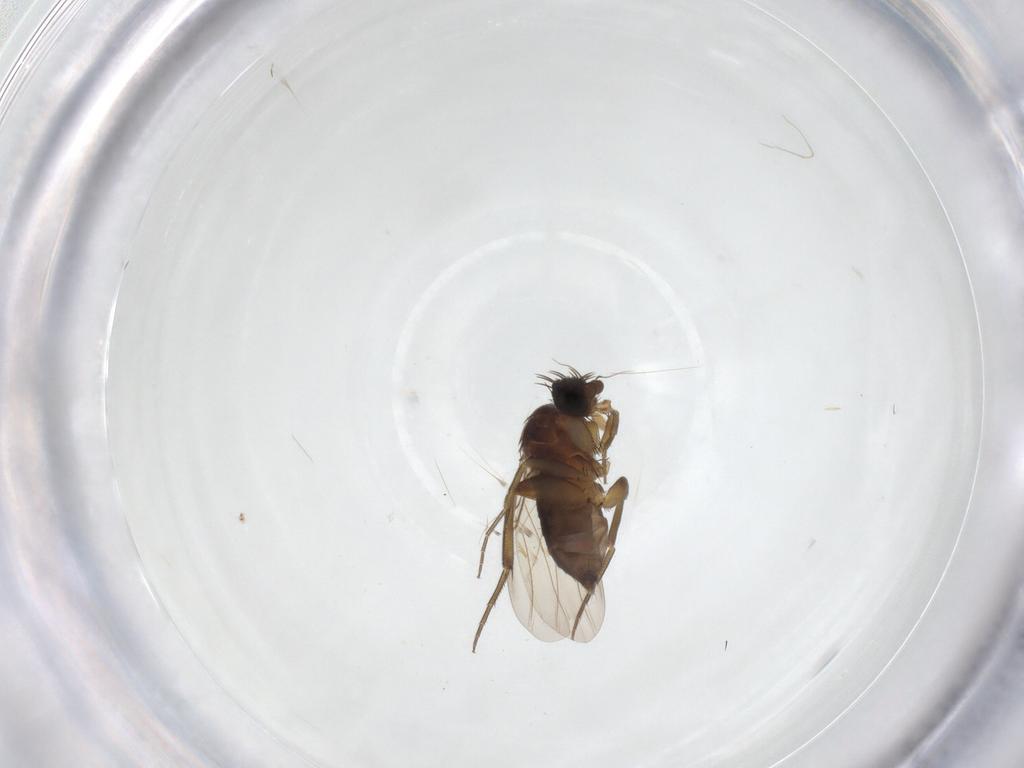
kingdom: Animalia
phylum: Arthropoda
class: Insecta
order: Diptera
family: Phoridae
